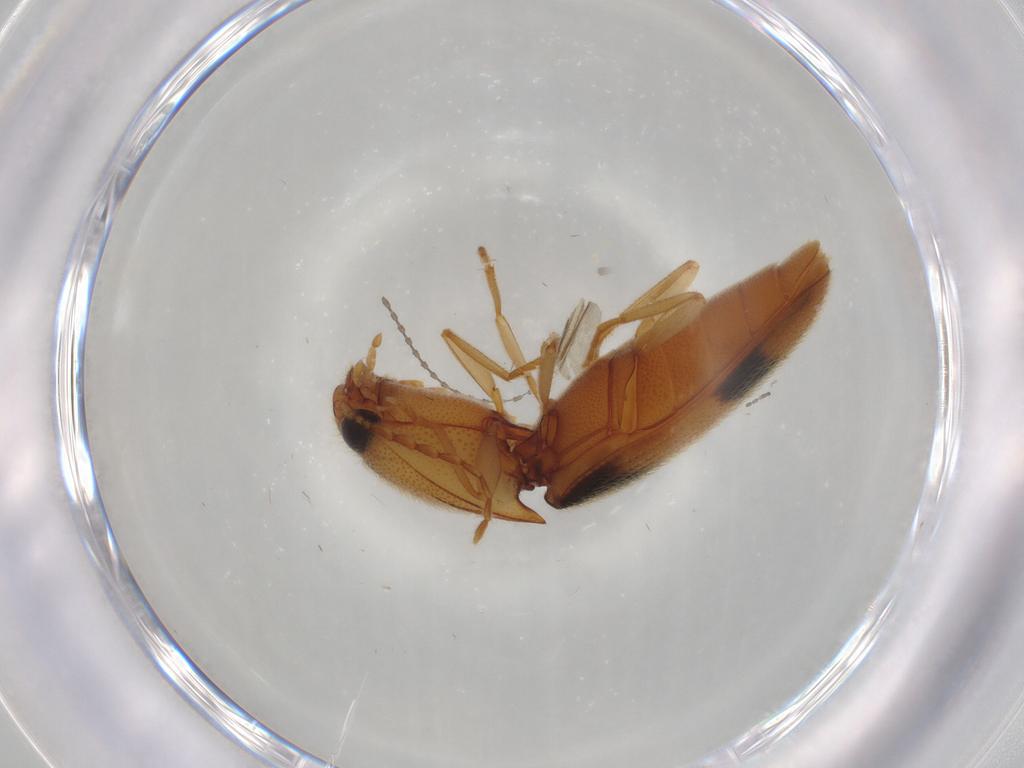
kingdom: Animalia
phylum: Arthropoda
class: Insecta
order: Coleoptera
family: Elateridae
